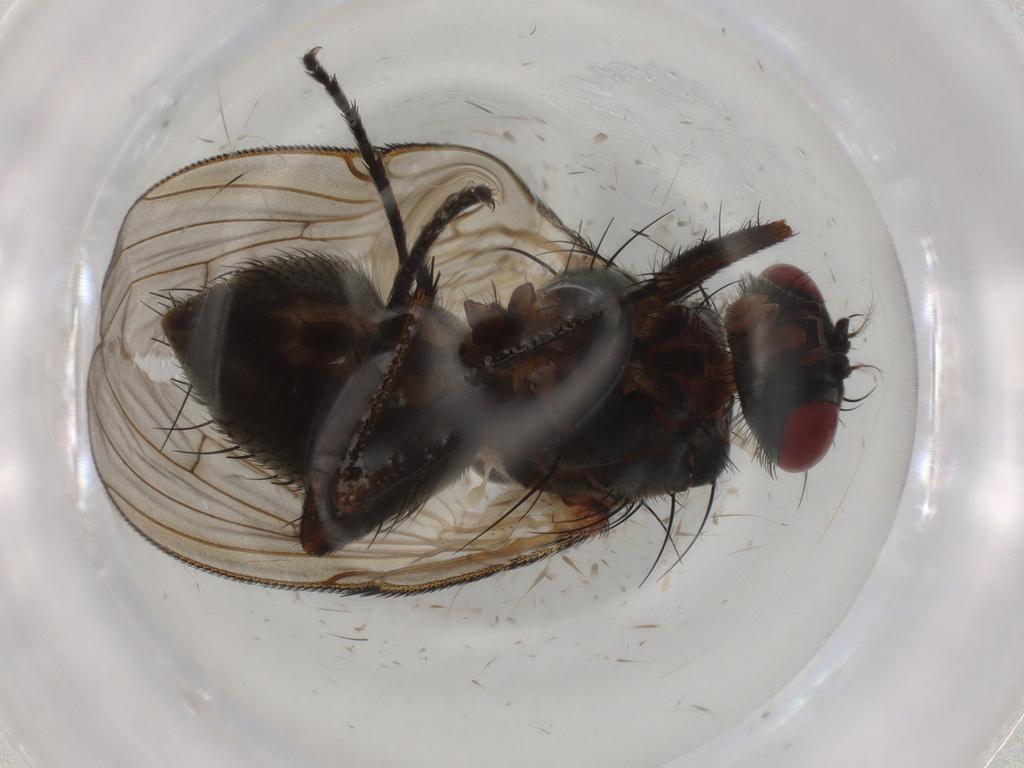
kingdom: Animalia
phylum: Arthropoda
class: Insecta
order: Diptera
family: Muscidae
